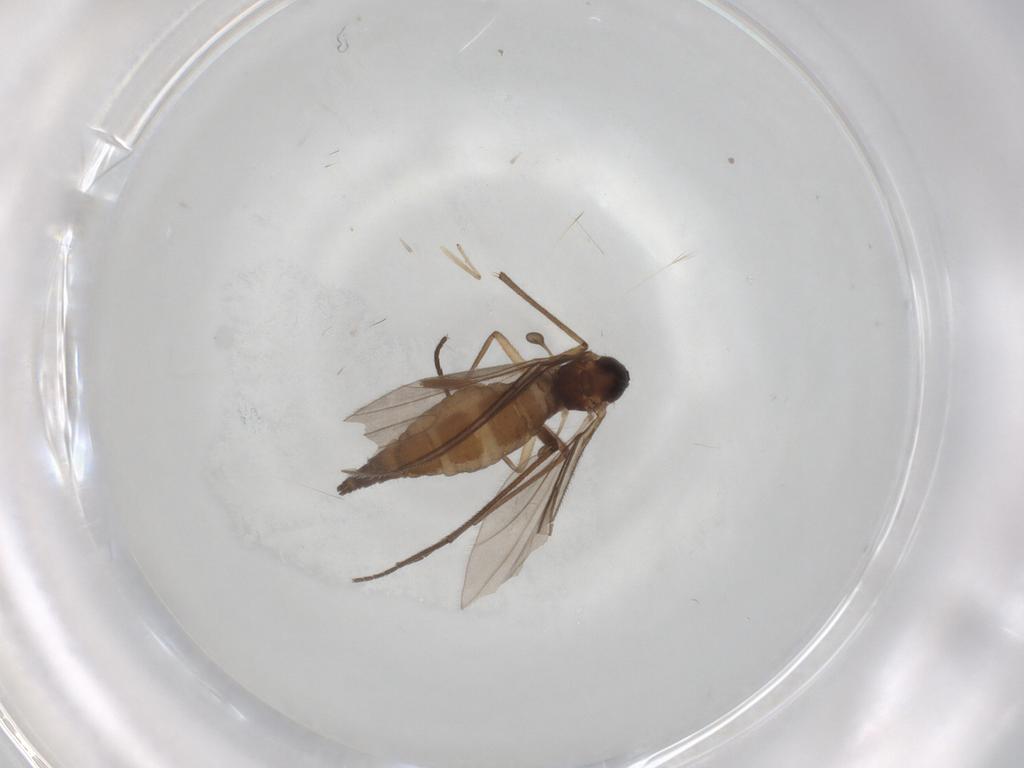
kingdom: Animalia
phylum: Arthropoda
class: Insecta
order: Diptera
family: Sciaridae
